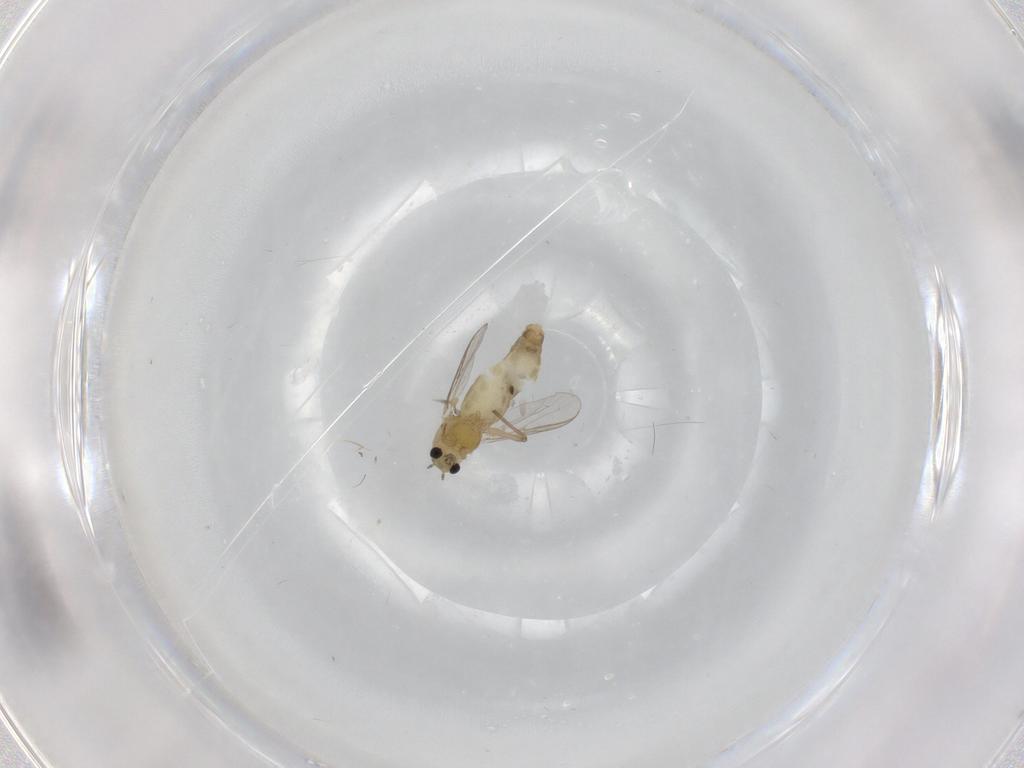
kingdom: Animalia
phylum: Arthropoda
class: Insecta
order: Diptera
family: Chironomidae
